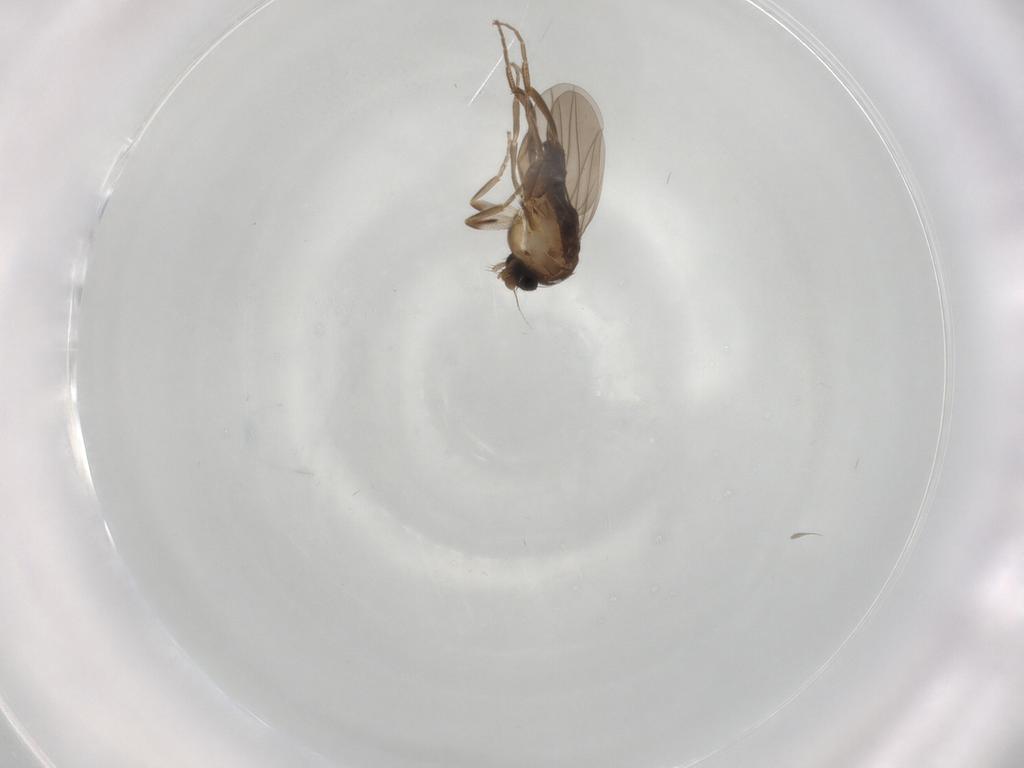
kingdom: Animalia
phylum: Arthropoda
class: Insecta
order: Diptera
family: Chironomidae
